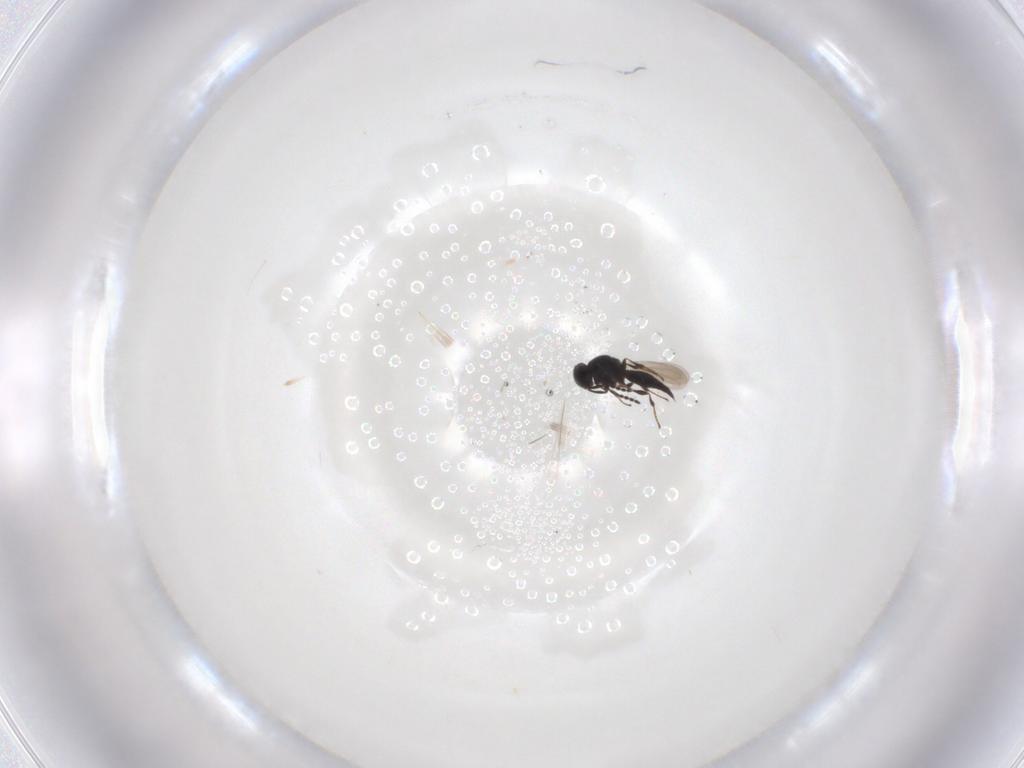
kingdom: Animalia
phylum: Arthropoda
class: Insecta
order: Hymenoptera
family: Platygastridae
